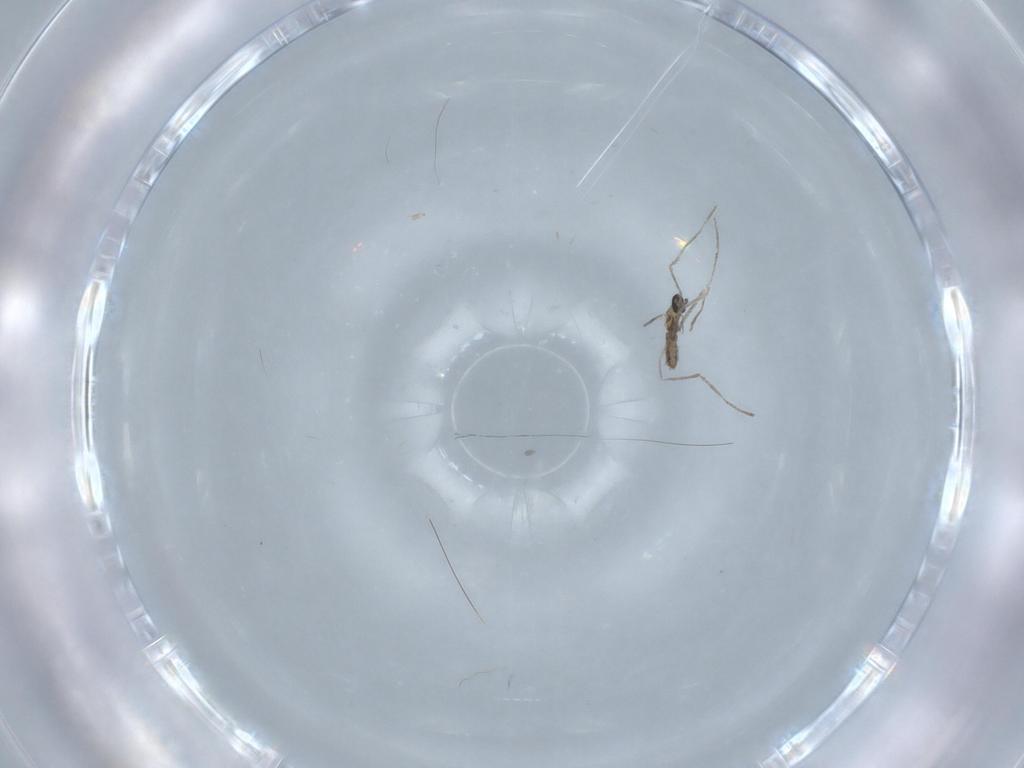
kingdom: Animalia
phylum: Arthropoda
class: Insecta
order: Diptera
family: Cecidomyiidae
